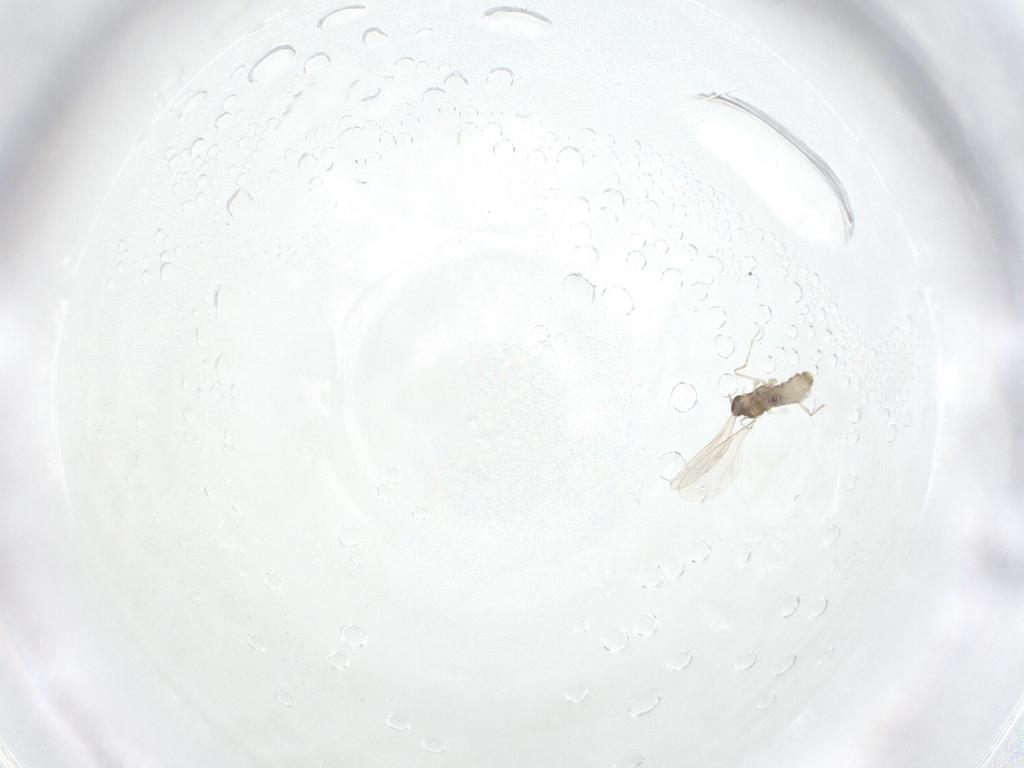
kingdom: Animalia
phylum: Arthropoda
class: Insecta
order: Diptera
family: Cecidomyiidae
